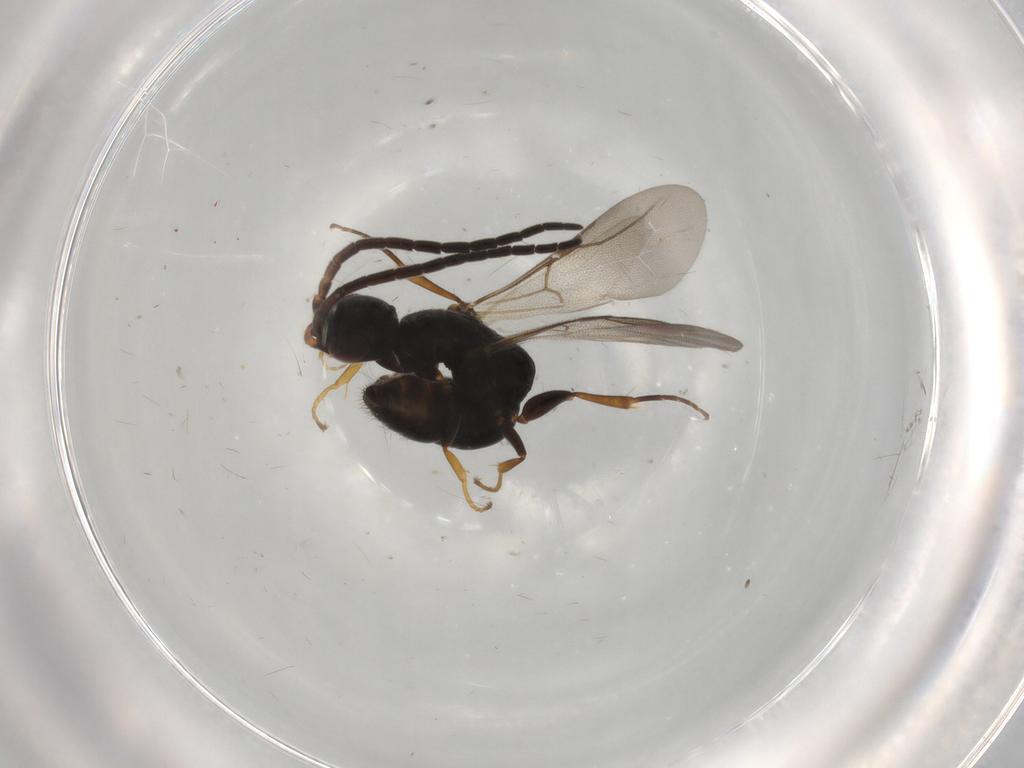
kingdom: Animalia
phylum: Arthropoda
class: Insecta
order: Hymenoptera
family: Bethylidae
